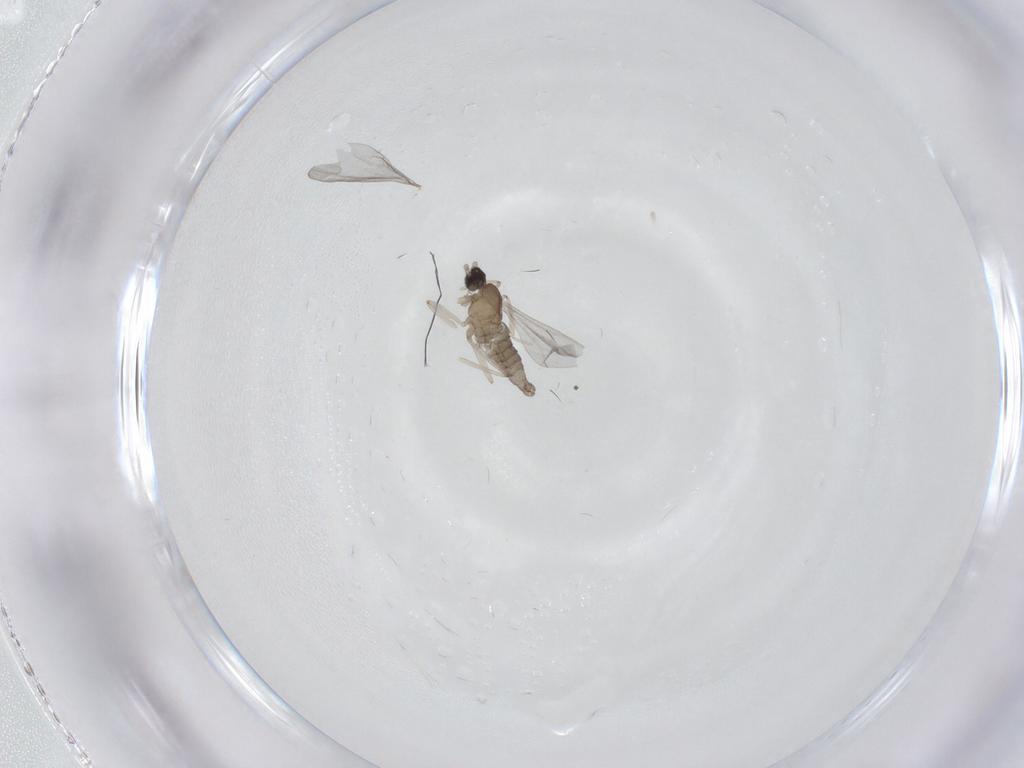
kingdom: Animalia
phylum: Arthropoda
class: Insecta
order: Diptera
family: Cecidomyiidae
